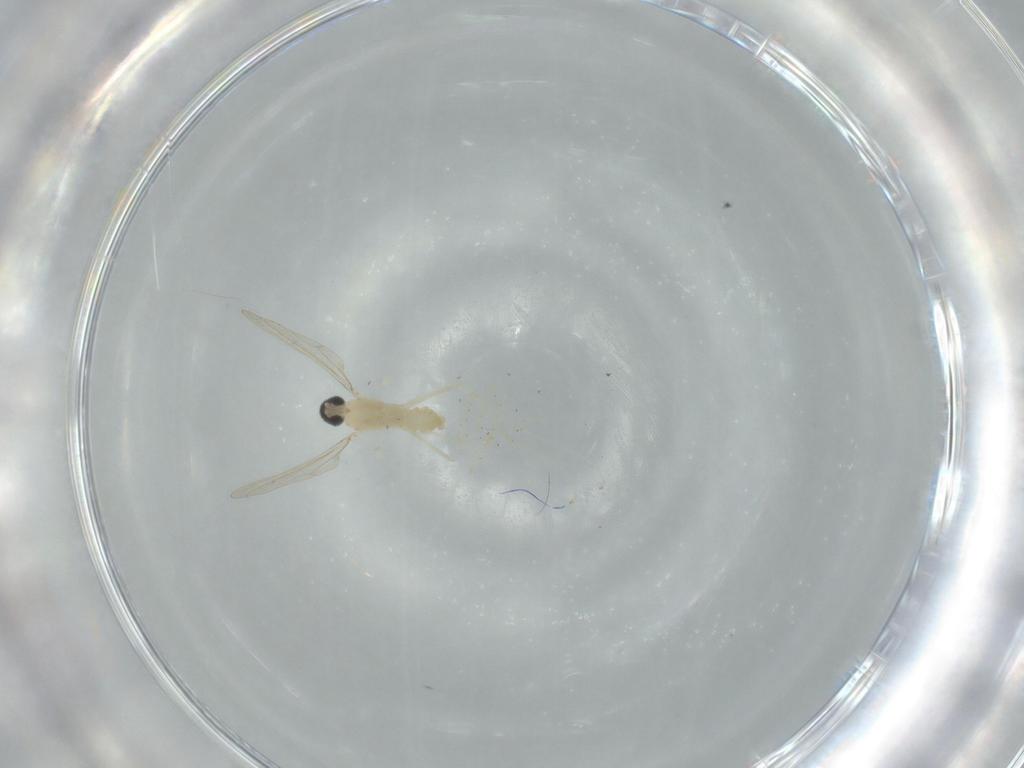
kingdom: Animalia
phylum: Arthropoda
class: Insecta
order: Diptera
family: Cecidomyiidae
